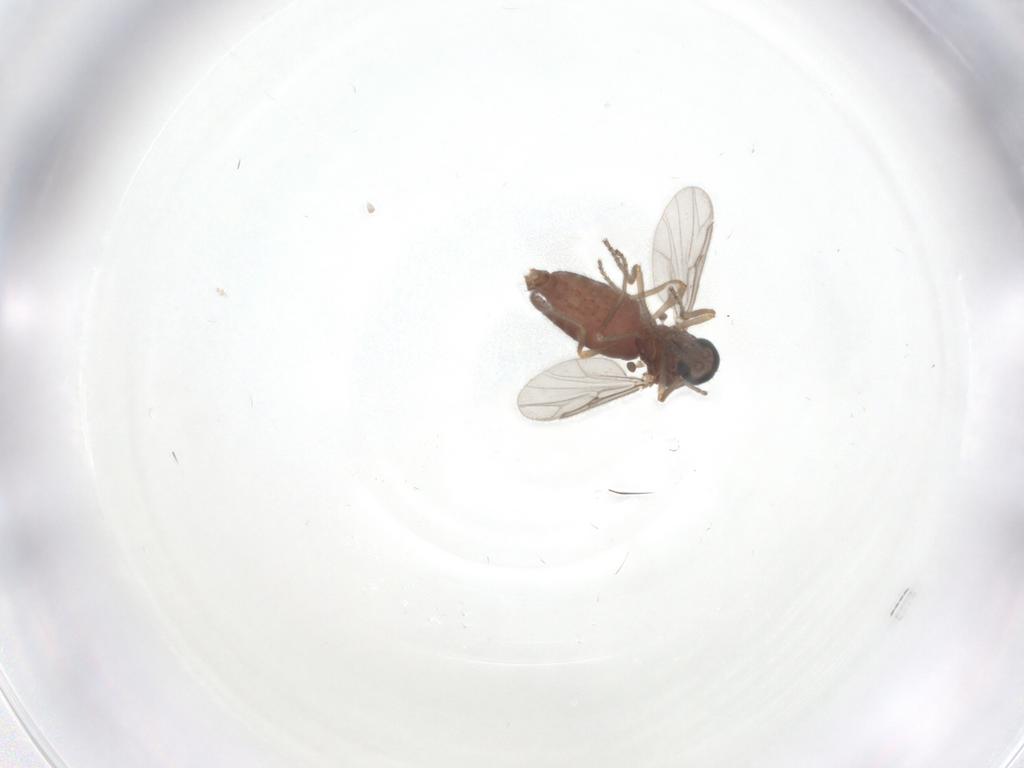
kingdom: Animalia
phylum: Arthropoda
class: Insecta
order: Diptera
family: Ceratopogonidae
